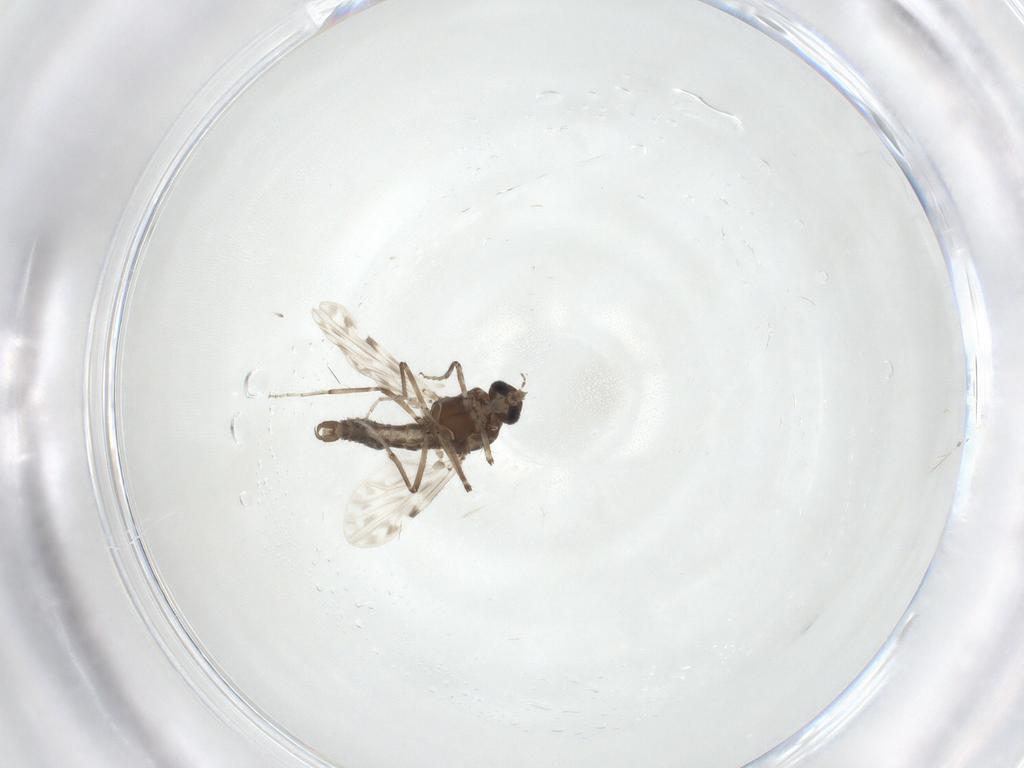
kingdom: Animalia
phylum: Arthropoda
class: Insecta
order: Diptera
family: Ceratopogonidae
